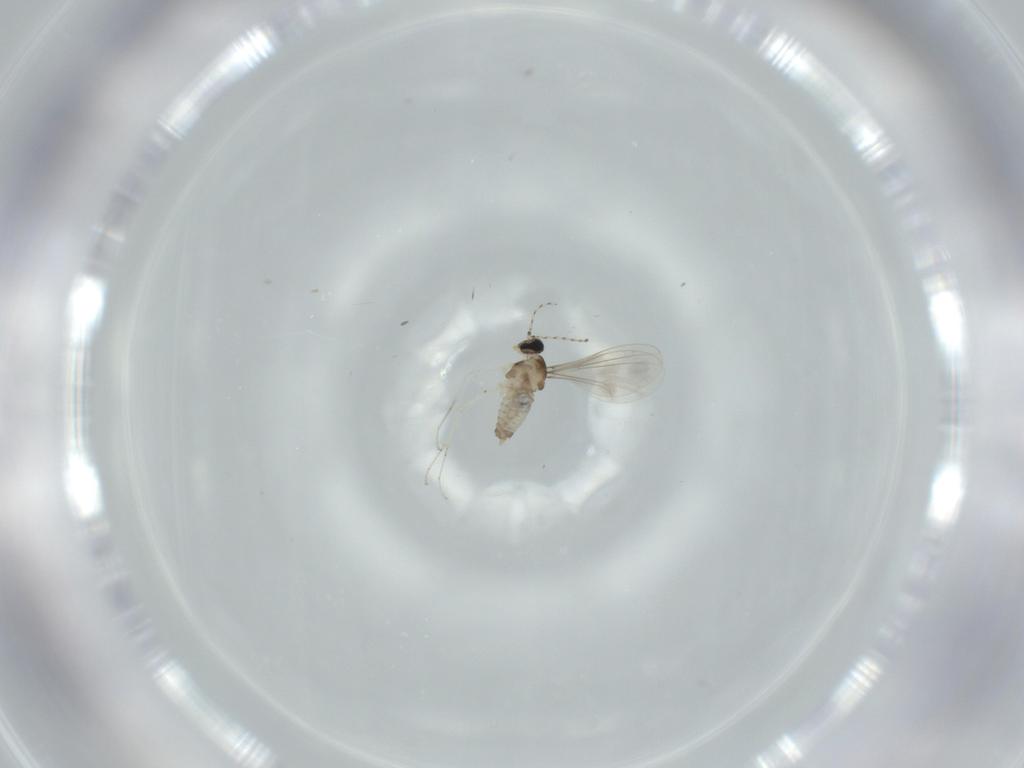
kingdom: Animalia
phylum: Arthropoda
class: Insecta
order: Diptera
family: Cecidomyiidae
